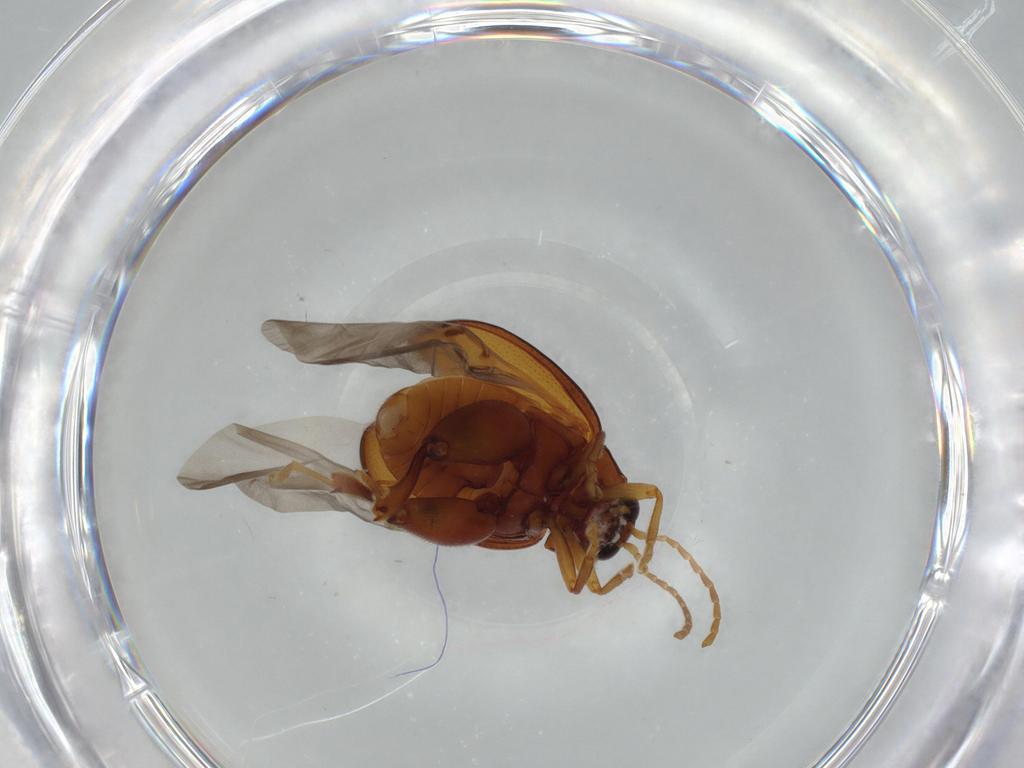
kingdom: Animalia
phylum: Arthropoda
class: Insecta
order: Coleoptera
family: Chrysomelidae
